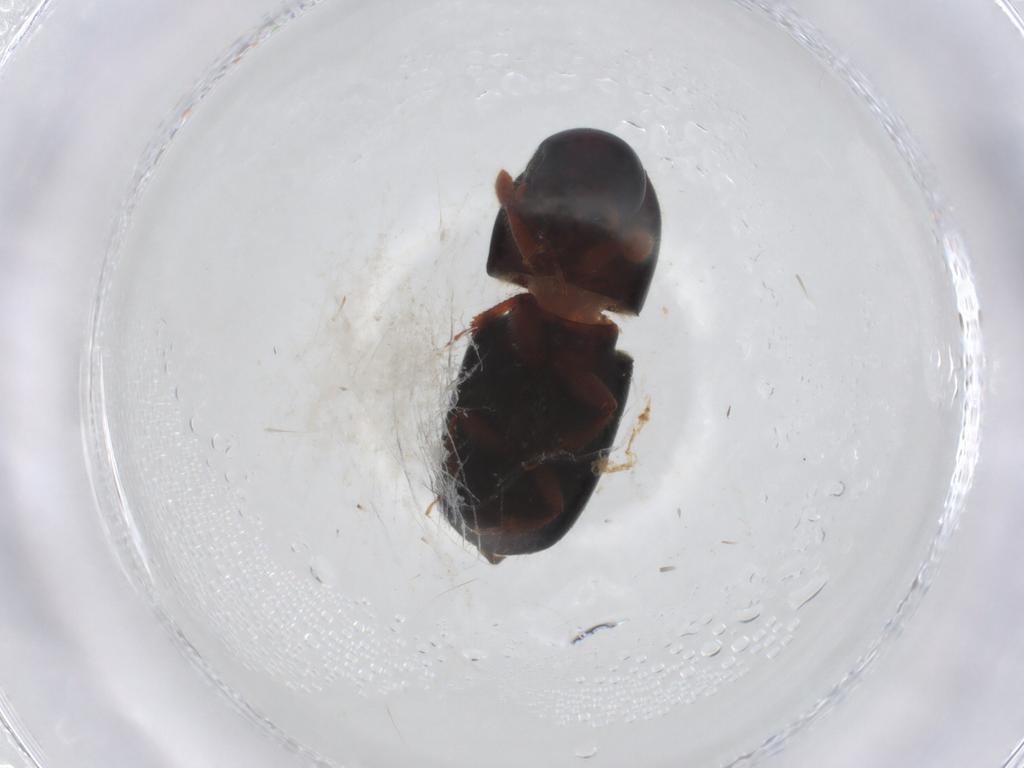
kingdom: Animalia
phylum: Arthropoda
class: Insecta
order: Coleoptera
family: Curculionidae
